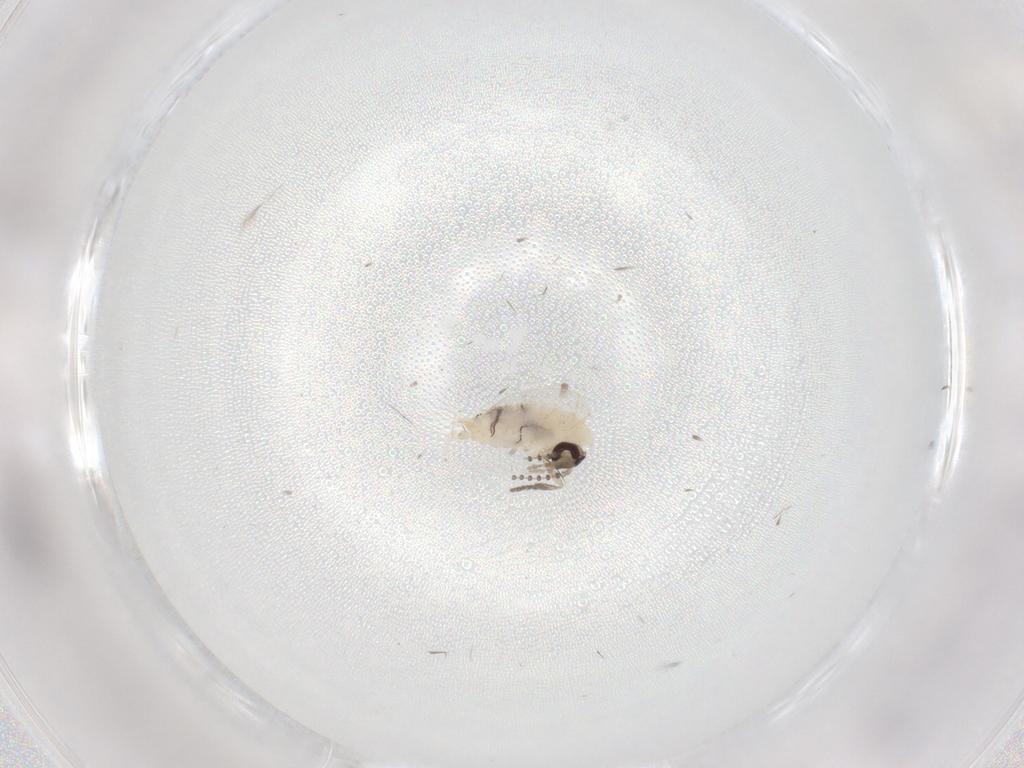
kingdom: Animalia
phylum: Arthropoda
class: Insecta
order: Diptera
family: Psychodidae
